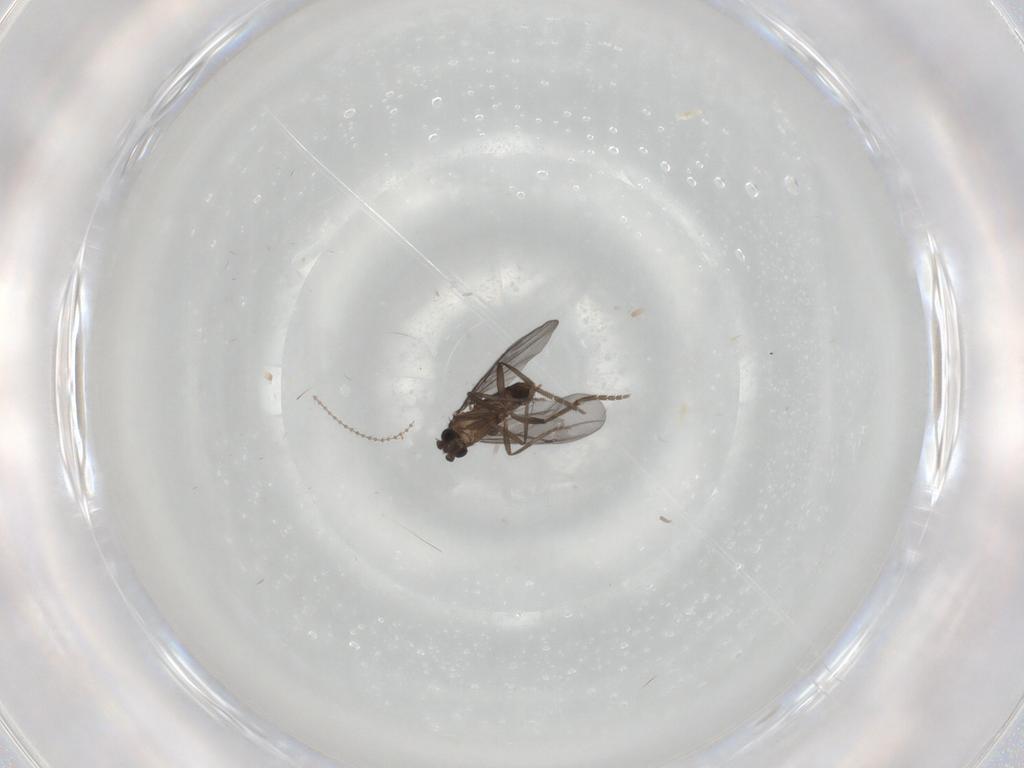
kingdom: Animalia
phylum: Arthropoda
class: Insecta
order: Diptera
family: Phoridae
